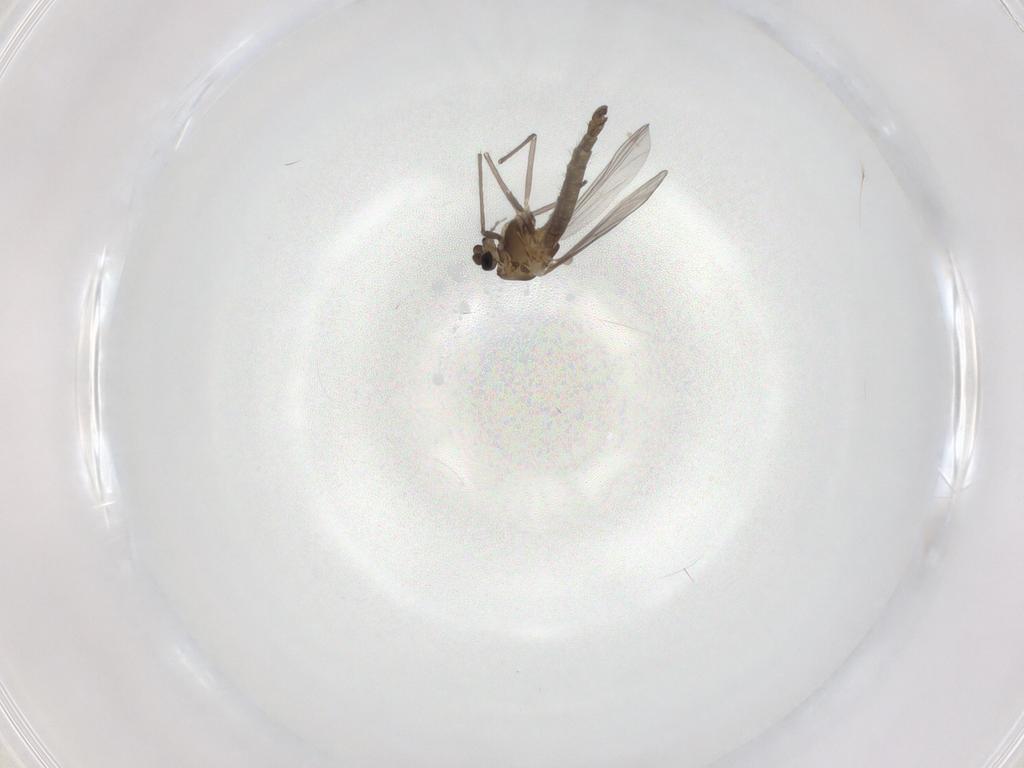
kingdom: Animalia
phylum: Arthropoda
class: Insecta
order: Diptera
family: Chironomidae
